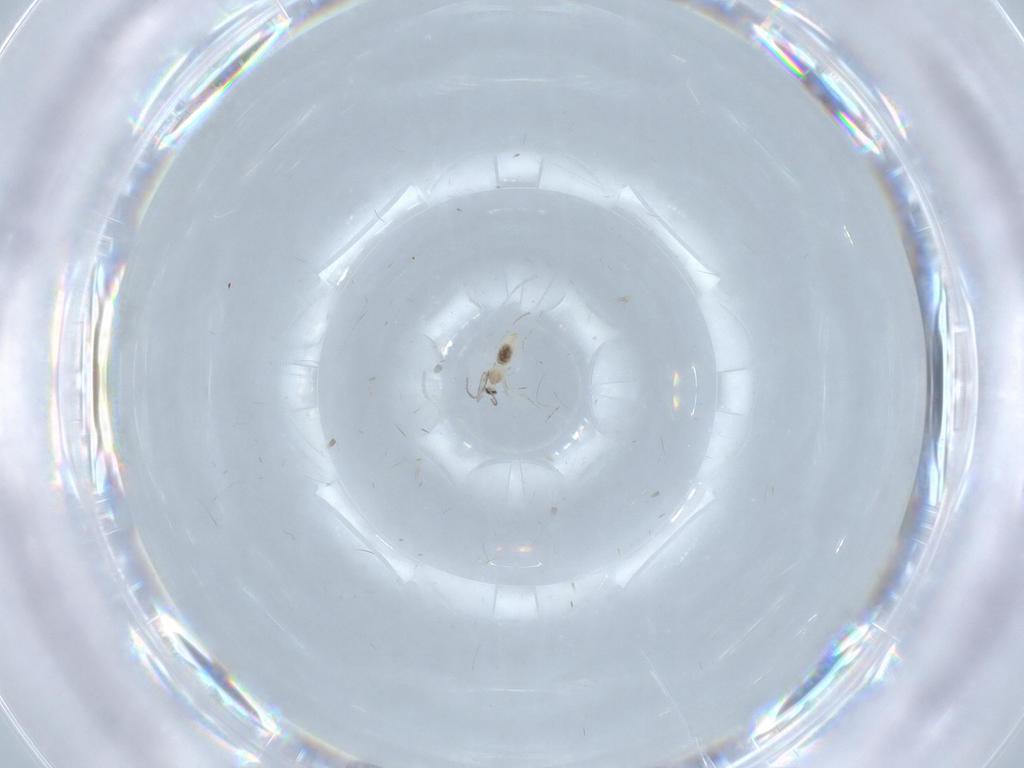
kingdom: Animalia
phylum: Arthropoda
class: Insecta
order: Diptera
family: Cecidomyiidae
